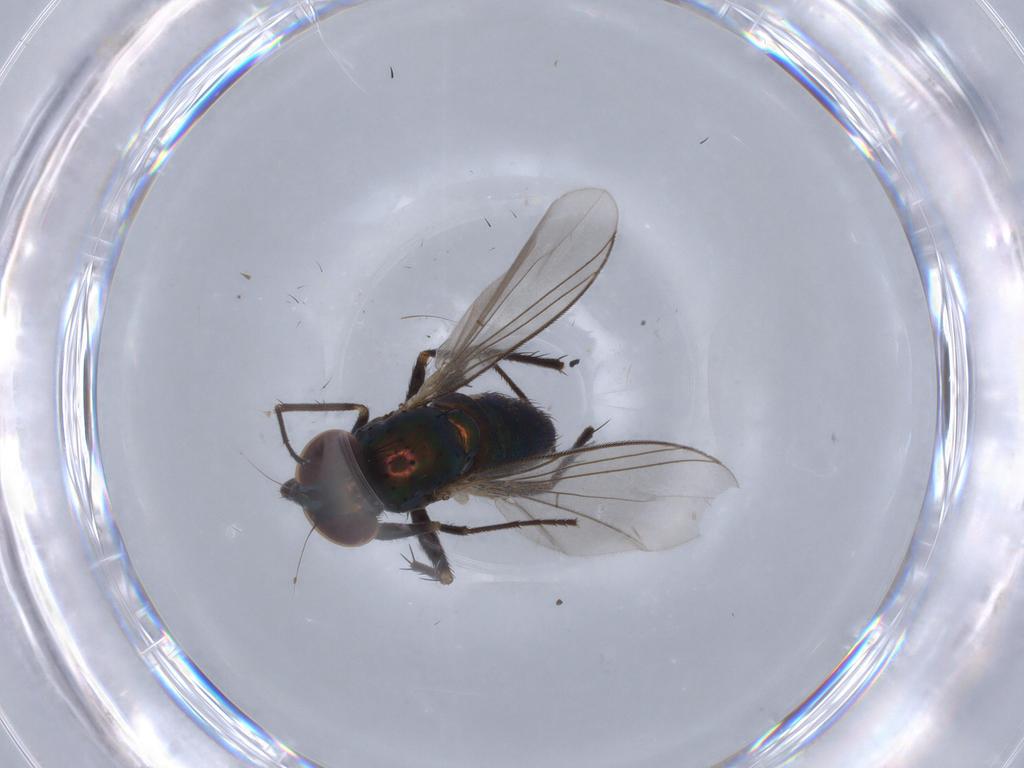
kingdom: Animalia
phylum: Arthropoda
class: Insecta
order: Diptera
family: Dolichopodidae
